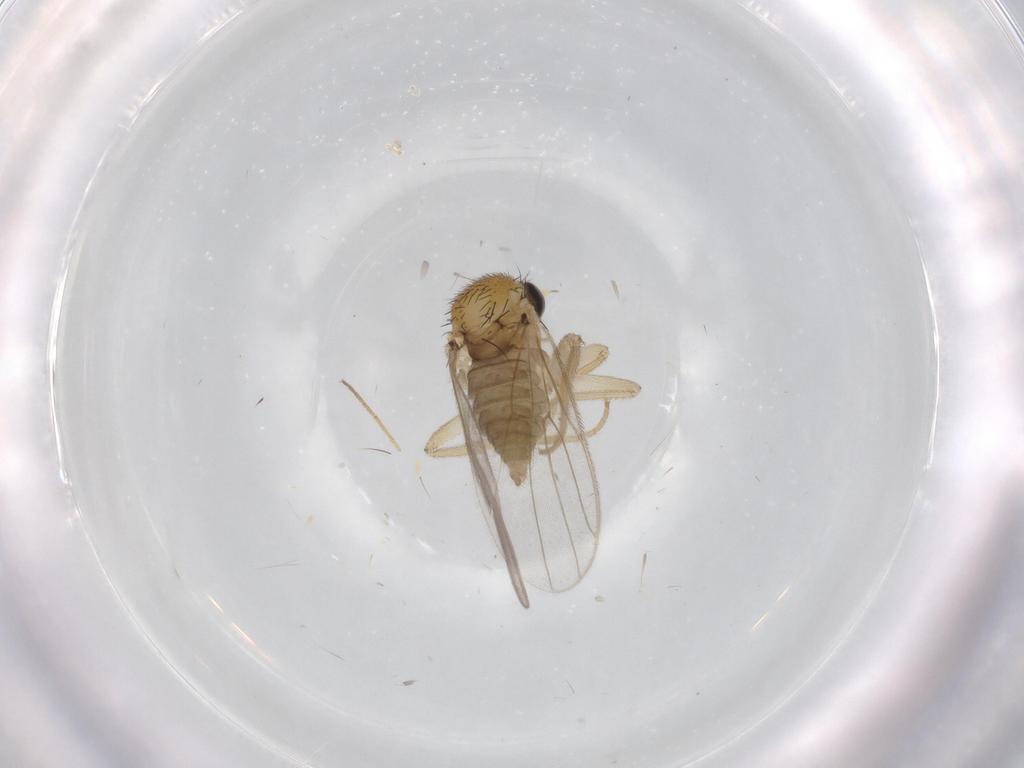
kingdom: Animalia
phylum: Arthropoda
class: Insecta
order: Diptera
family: Hybotidae
